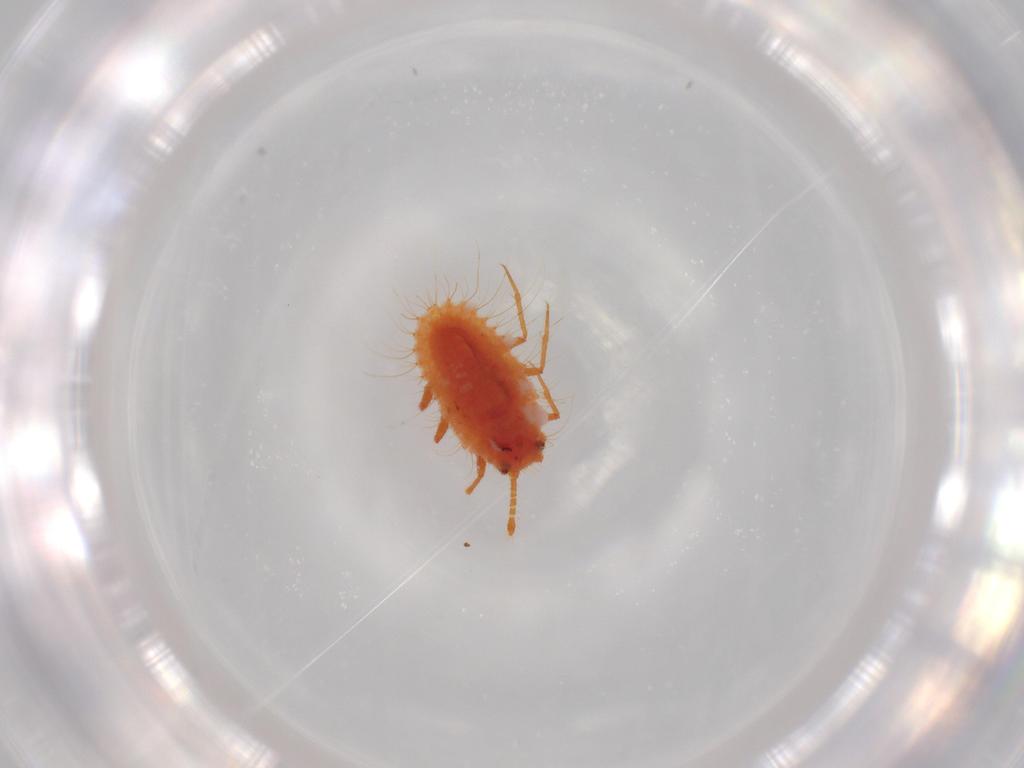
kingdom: Animalia
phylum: Arthropoda
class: Insecta
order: Hemiptera
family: Coccoidea_incertae_sedis
